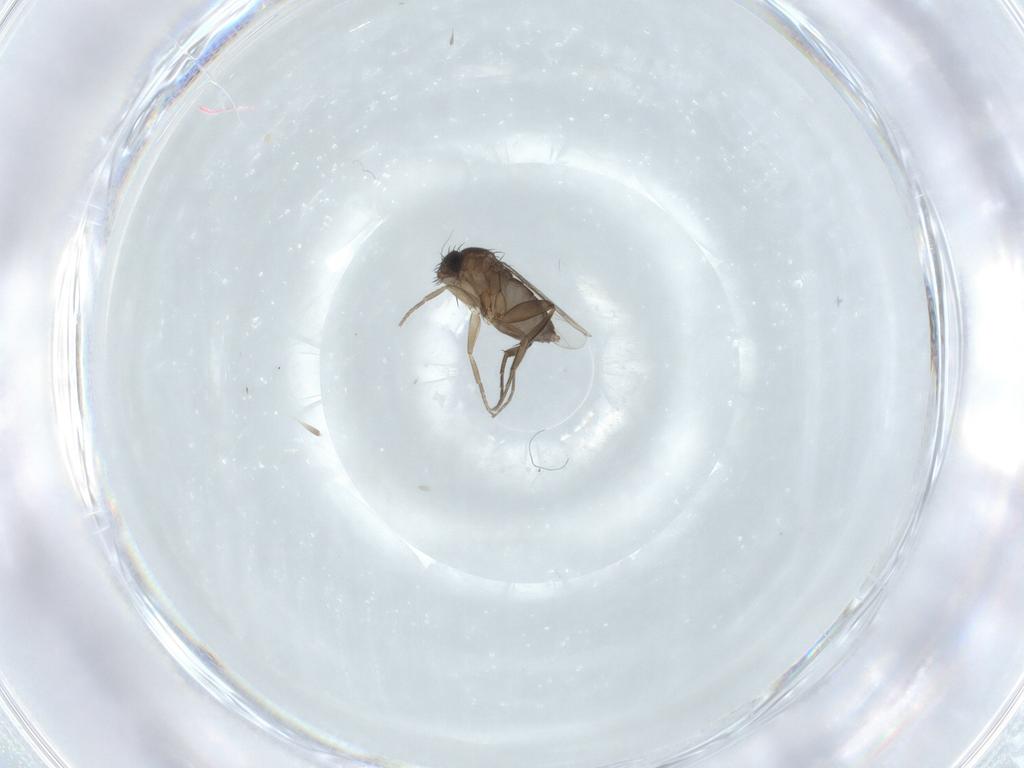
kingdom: Animalia
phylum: Arthropoda
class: Insecta
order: Diptera
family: Phoridae
